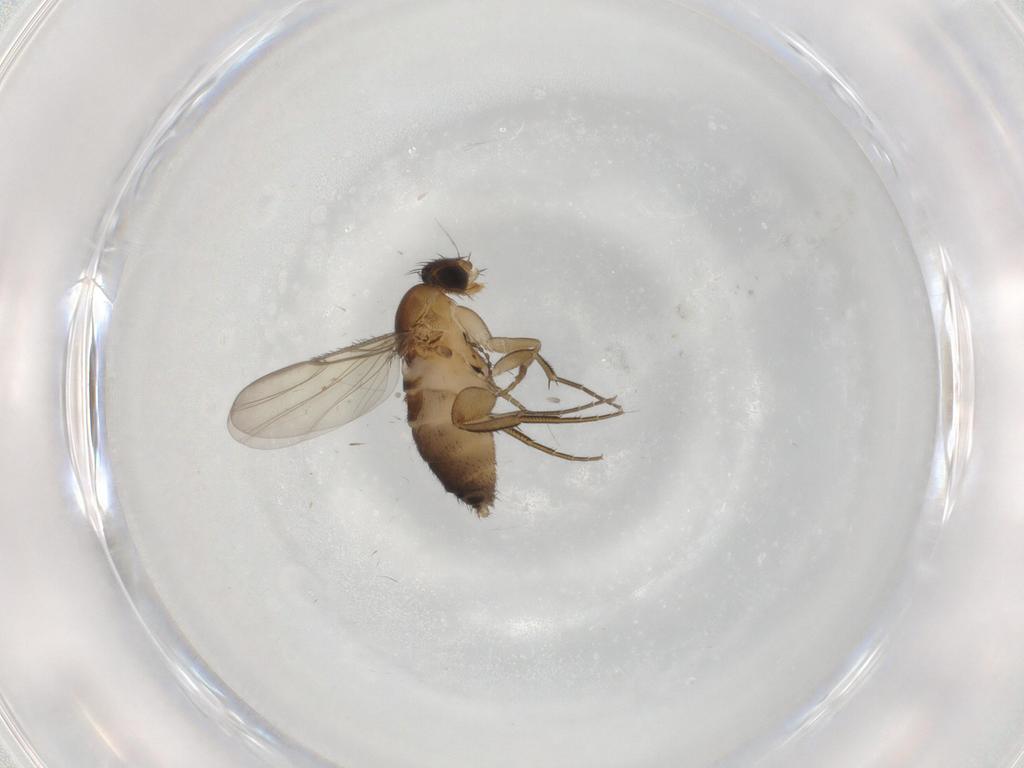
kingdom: Animalia
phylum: Arthropoda
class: Insecta
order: Diptera
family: Phoridae
